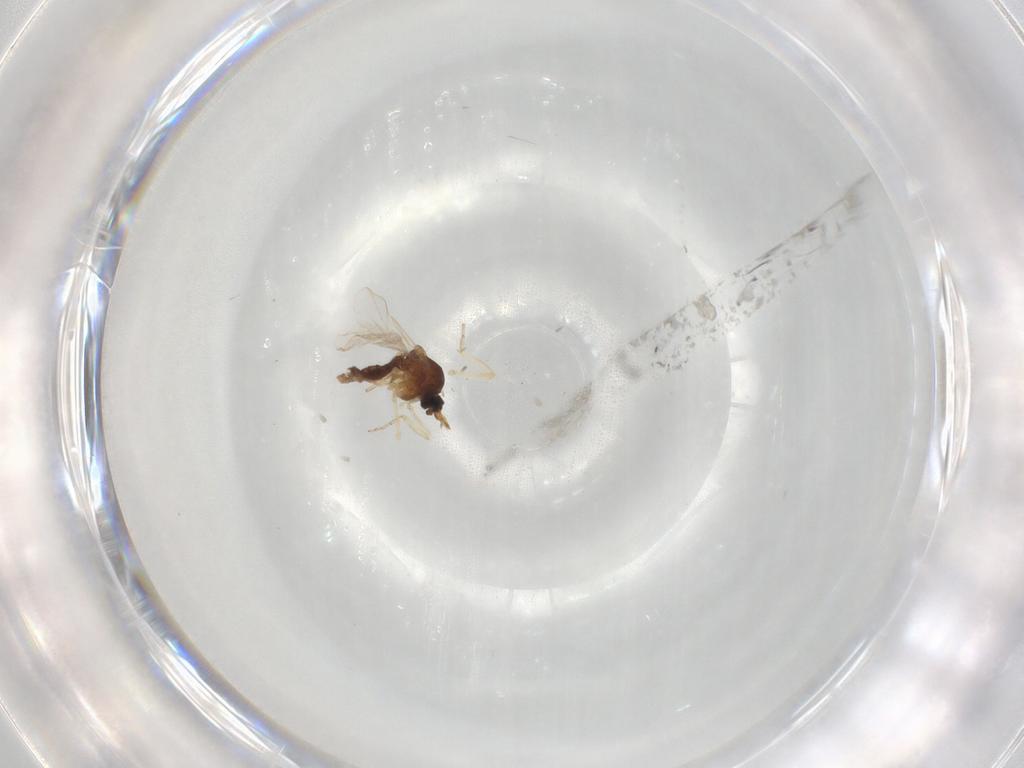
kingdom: Animalia
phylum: Arthropoda
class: Insecta
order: Diptera
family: Ceratopogonidae
